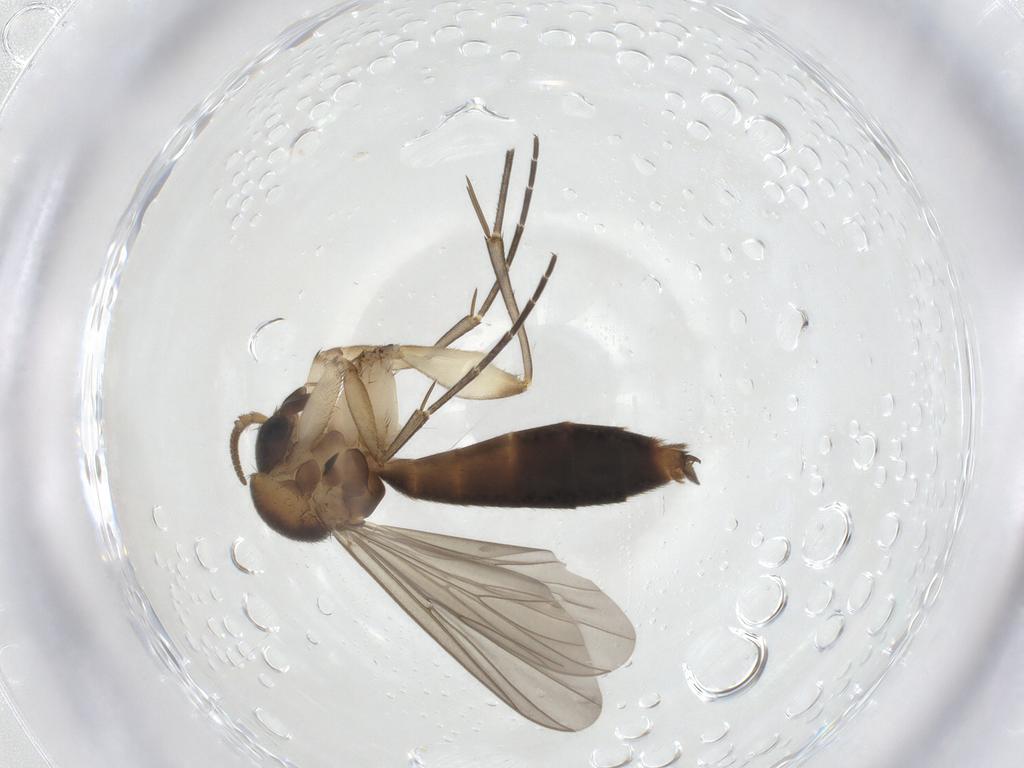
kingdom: Animalia
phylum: Arthropoda
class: Insecta
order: Diptera
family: Mycetophilidae
